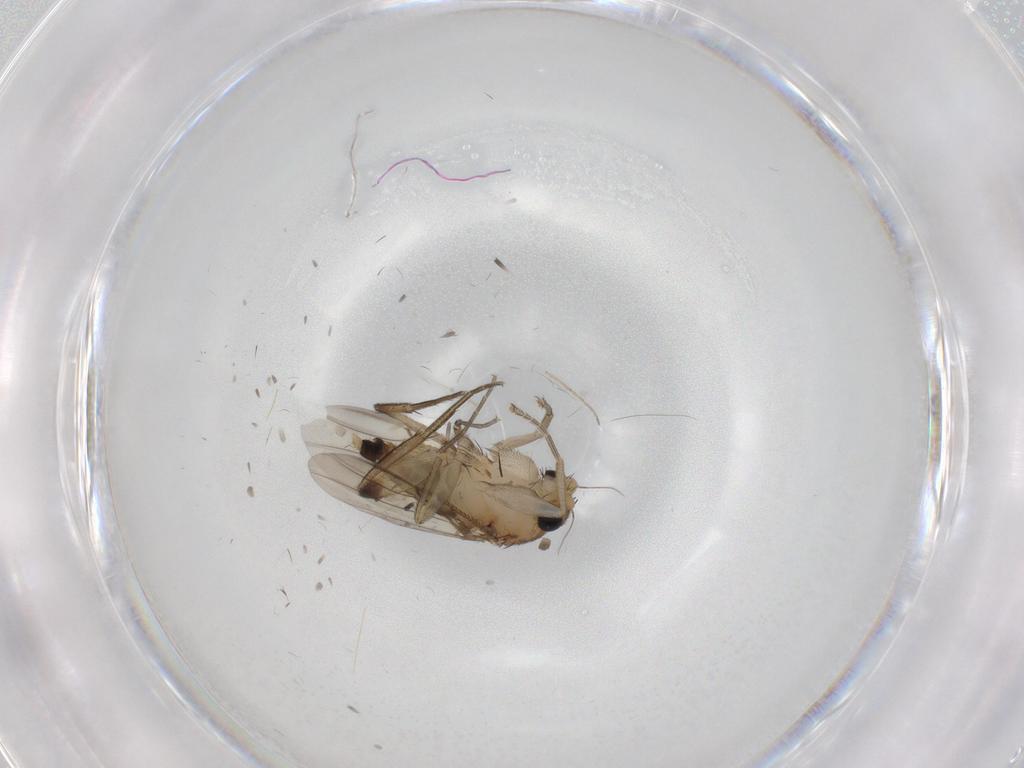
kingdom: Animalia
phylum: Arthropoda
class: Insecta
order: Diptera
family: Phoridae
